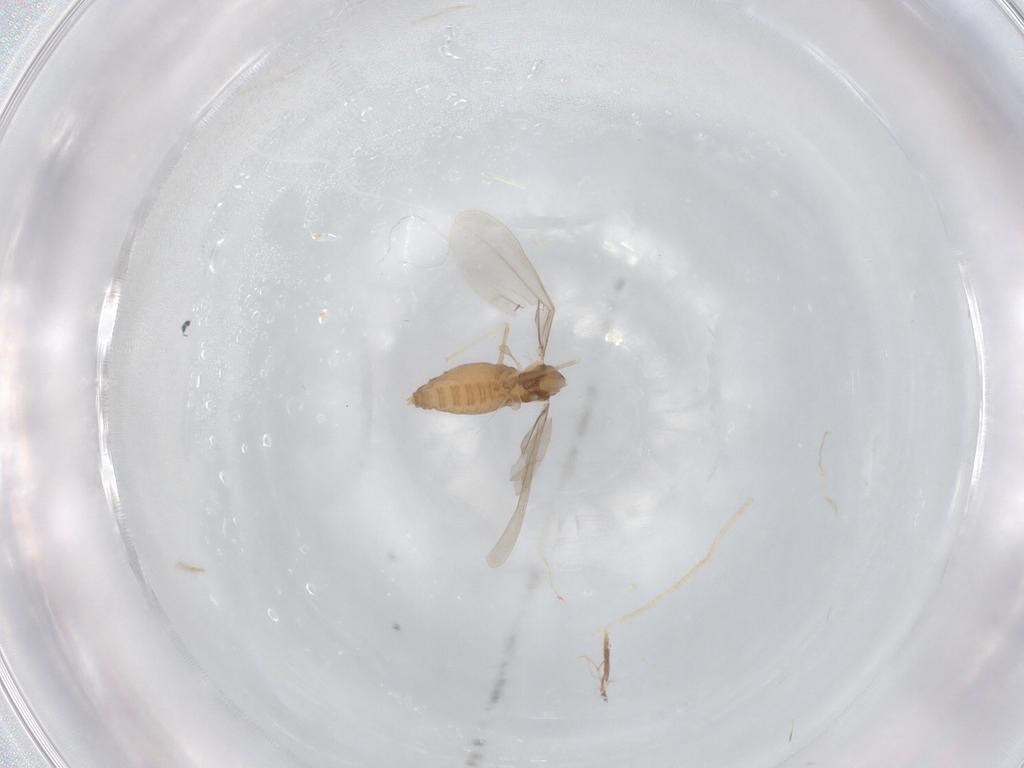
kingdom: Animalia
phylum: Arthropoda
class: Insecta
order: Diptera
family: Cecidomyiidae
